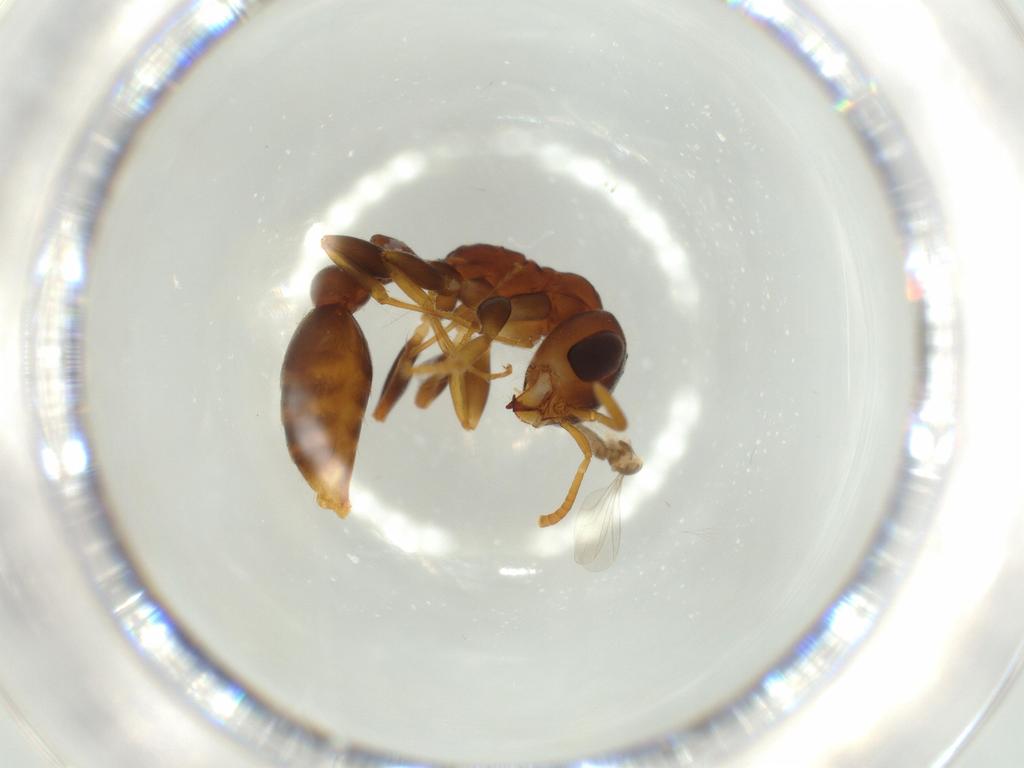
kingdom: Animalia
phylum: Arthropoda
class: Insecta
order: Hymenoptera
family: Formicidae
